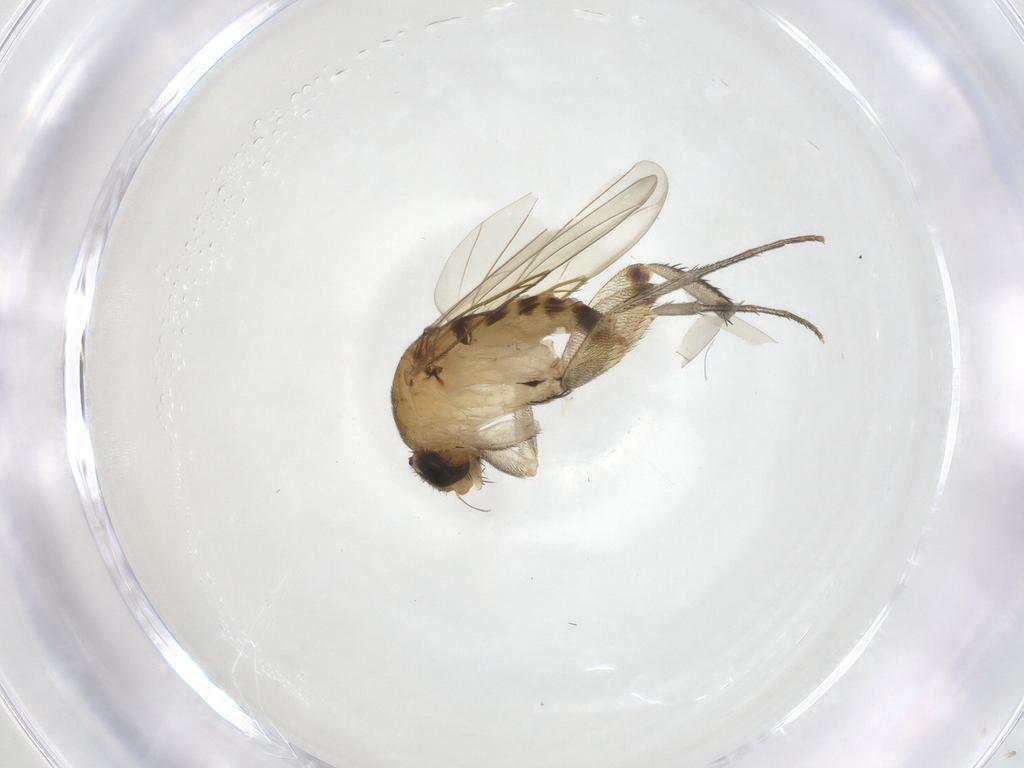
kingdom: Animalia
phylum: Arthropoda
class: Insecta
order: Diptera
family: Phoridae
